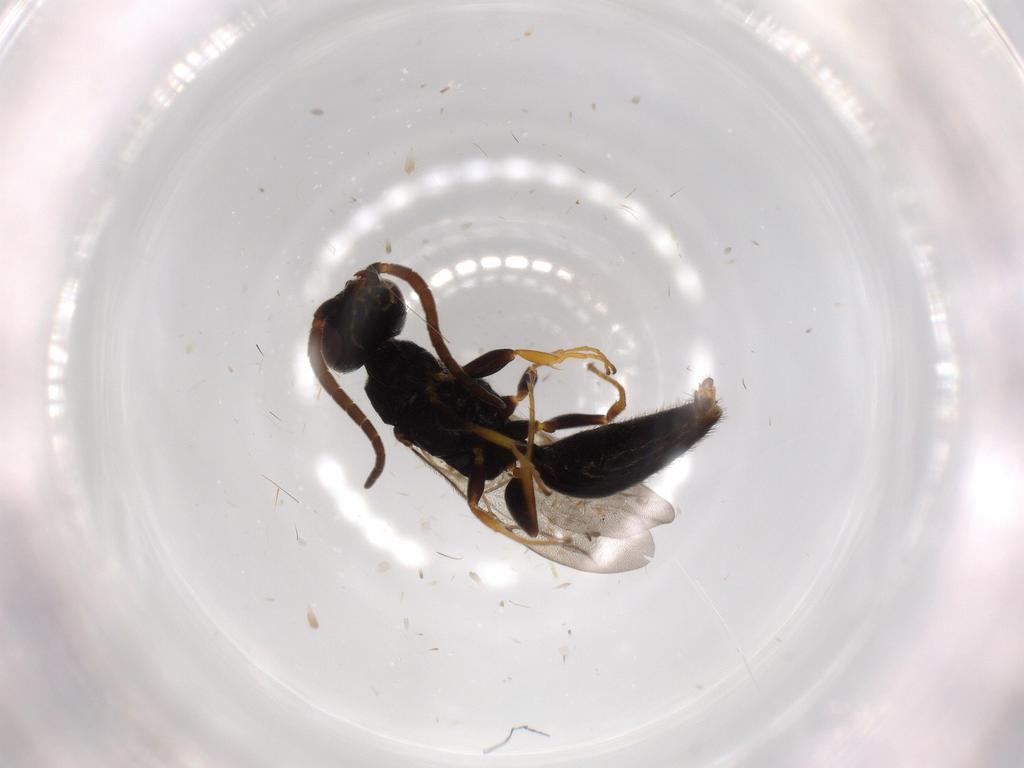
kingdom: Animalia
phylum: Arthropoda
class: Insecta
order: Hymenoptera
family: Bethylidae
